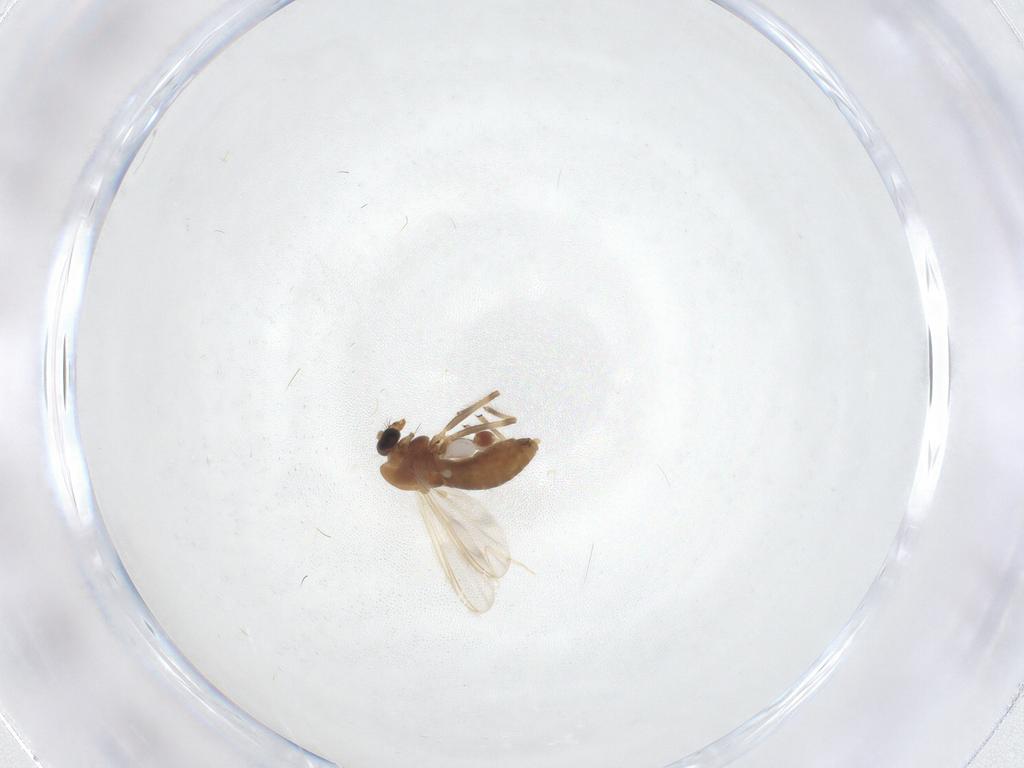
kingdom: Animalia
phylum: Arthropoda
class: Insecta
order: Diptera
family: Chironomidae
